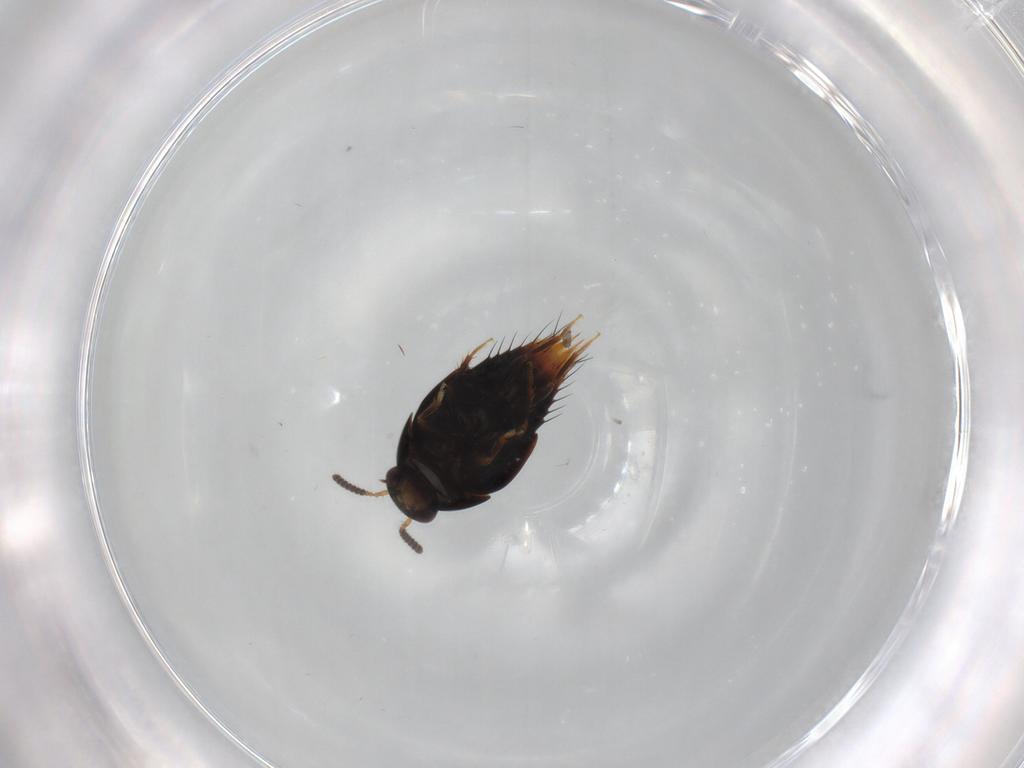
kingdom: Animalia
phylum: Arthropoda
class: Insecta
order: Coleoptera
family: Staphylinidae
